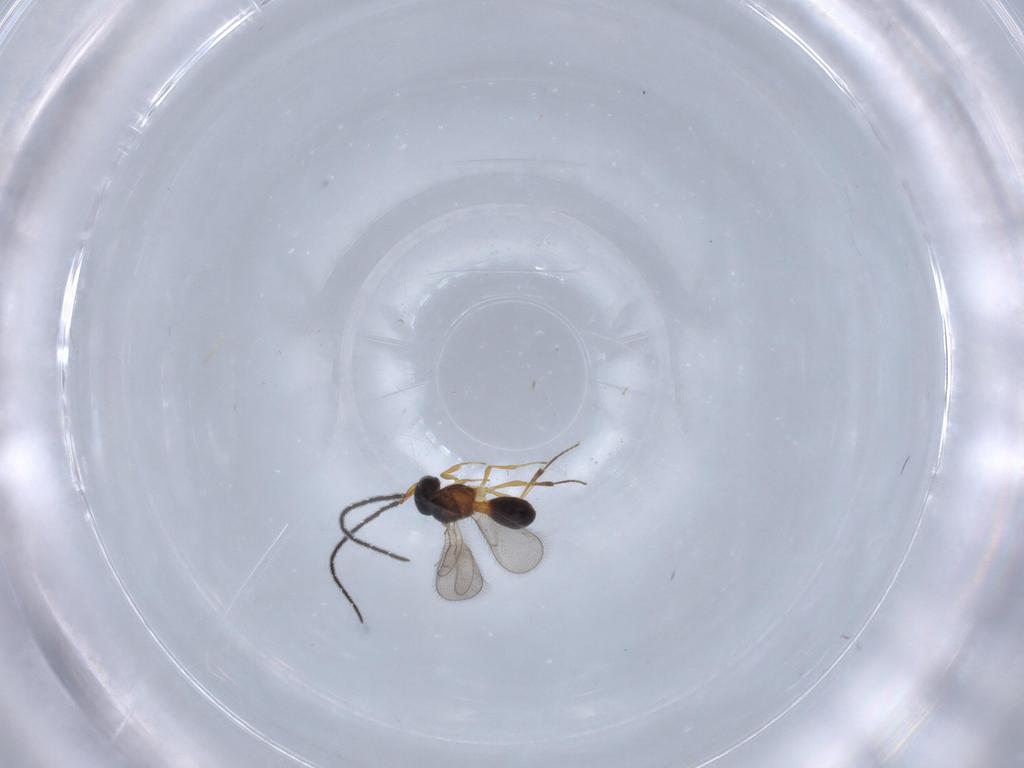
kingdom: Animalia
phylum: Arthropoda
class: Insecta
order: Hymenoptera
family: Scelionidae
